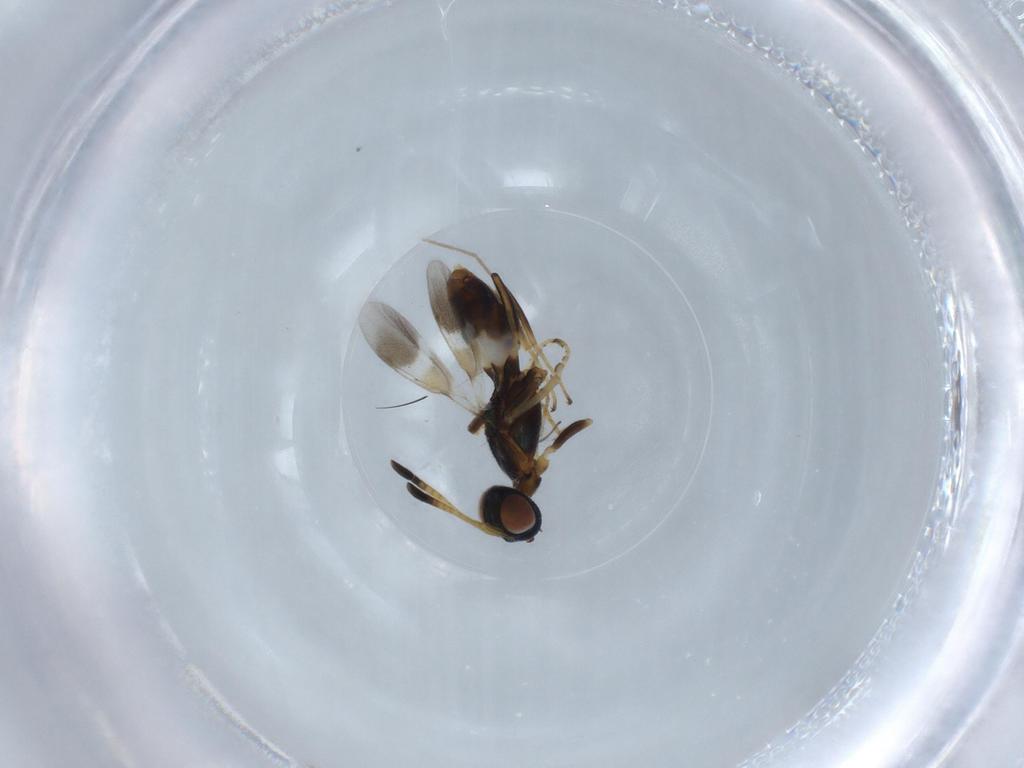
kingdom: Animalia
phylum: Arthropoda
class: Insecta
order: Hymenoptera
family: Eupelmidae
